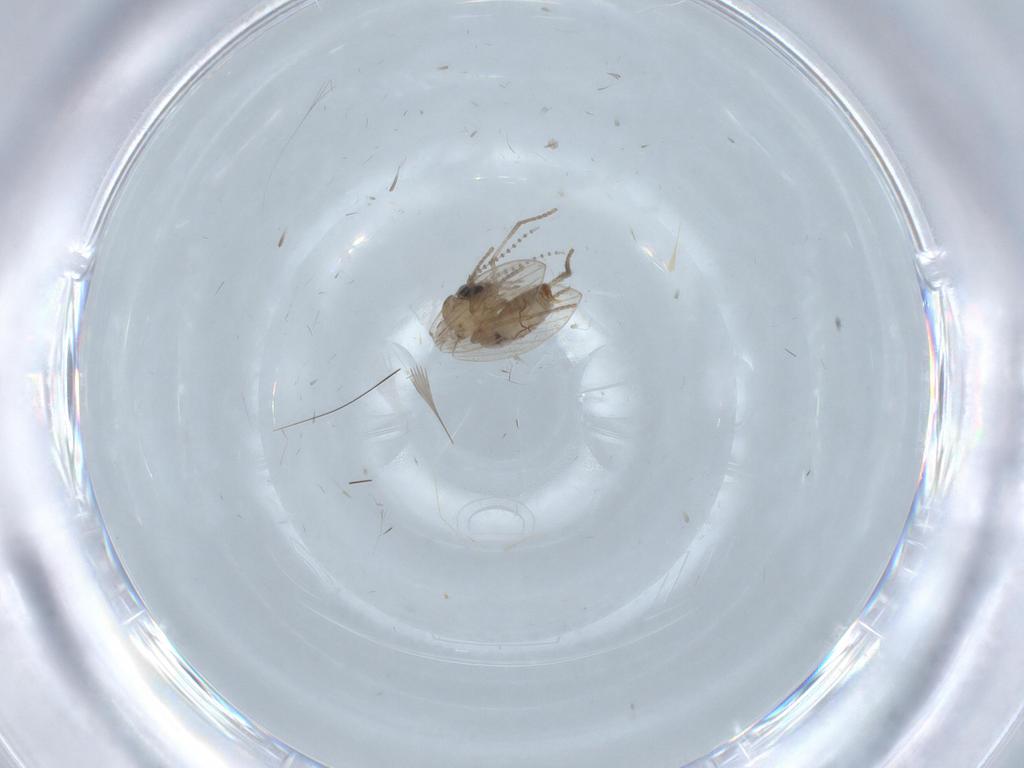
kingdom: Animalia
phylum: Arthropoda
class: Insecta
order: Diptera
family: Psychodidae
